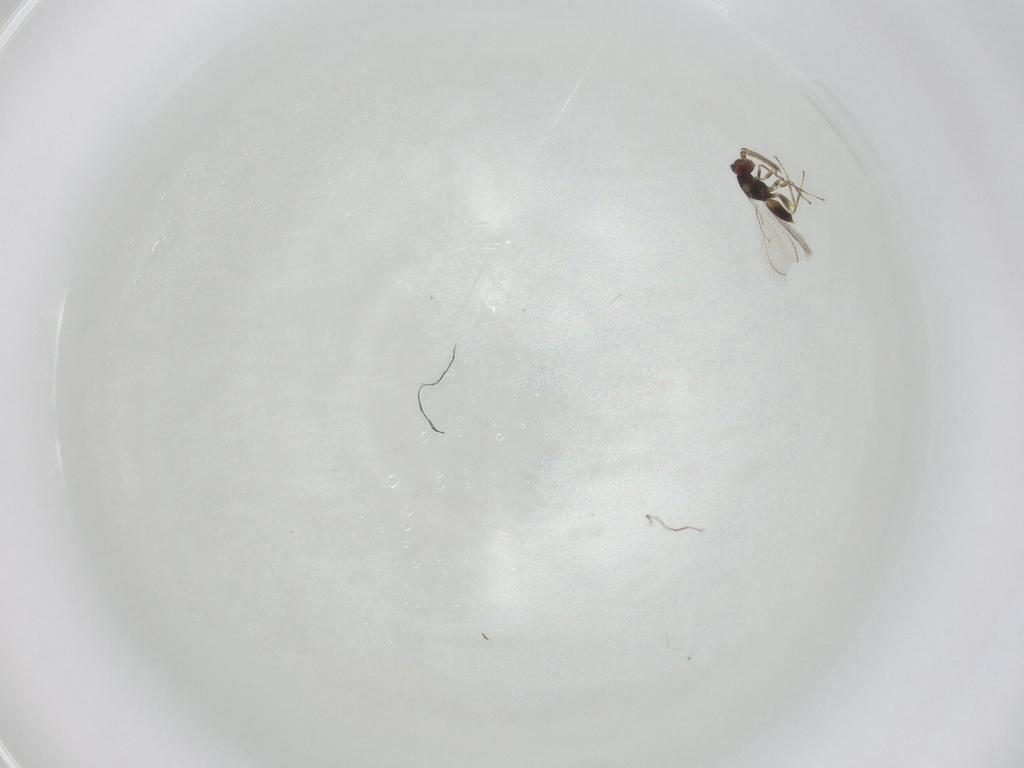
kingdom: Animalia
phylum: Arthropoda
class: Insecta
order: Hymenoptera
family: Eulophidae
